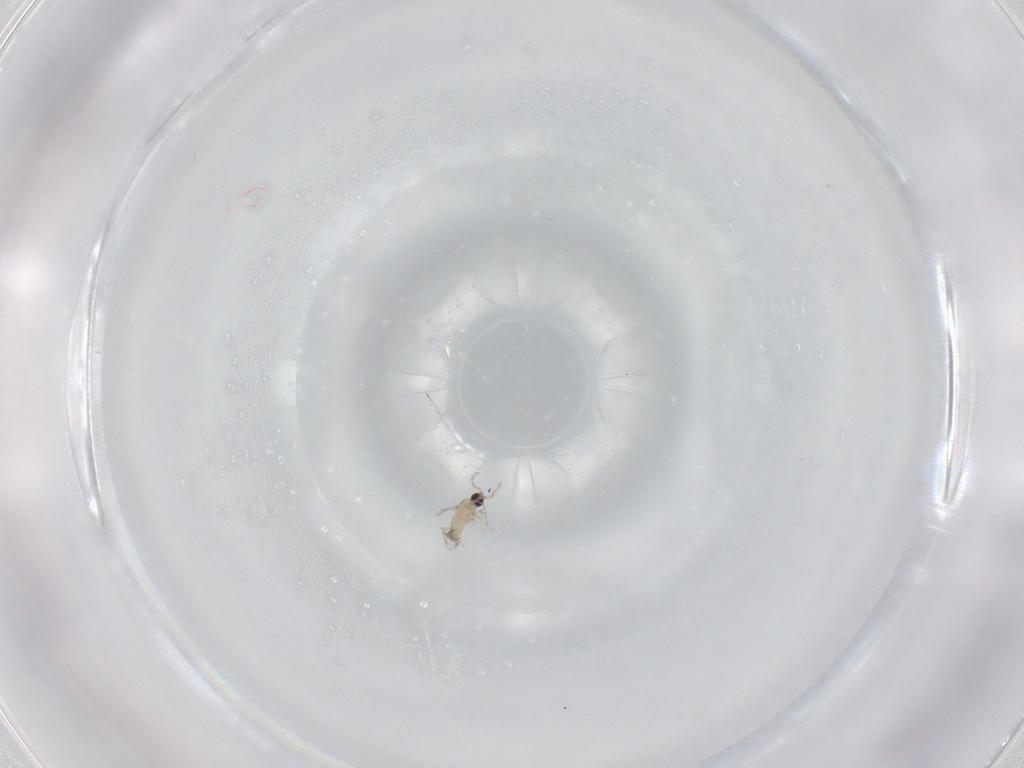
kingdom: Animalia
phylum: Arthropoda
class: Insecta
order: Diptera
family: Cecidomyiidae
